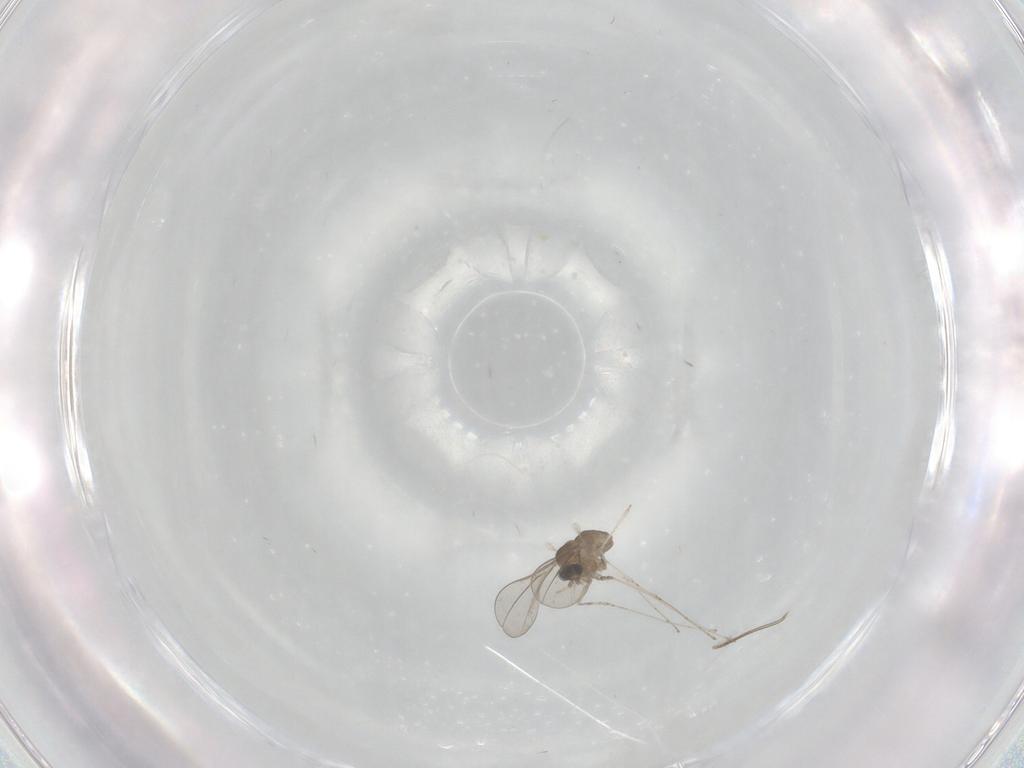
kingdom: Animalia
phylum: Arthropoda
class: Insecta
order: Diptera
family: Cecidomyiidae
